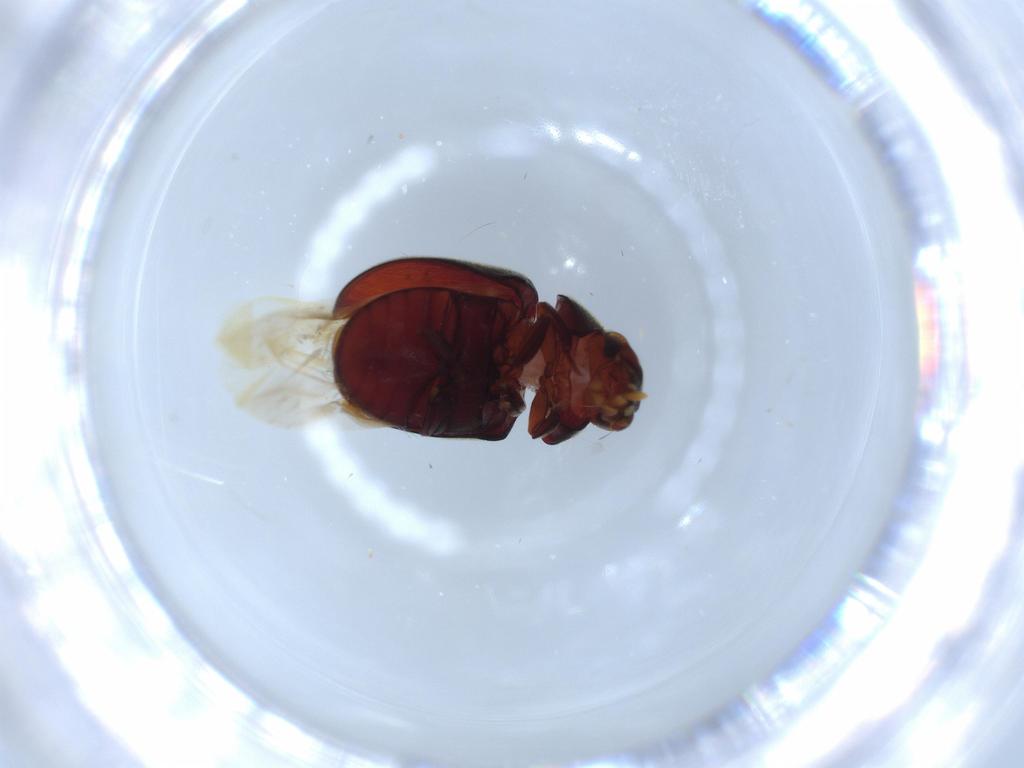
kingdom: Animalia
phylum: Arthropoda
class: Insecta
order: Coleoptera
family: Ptinidae
